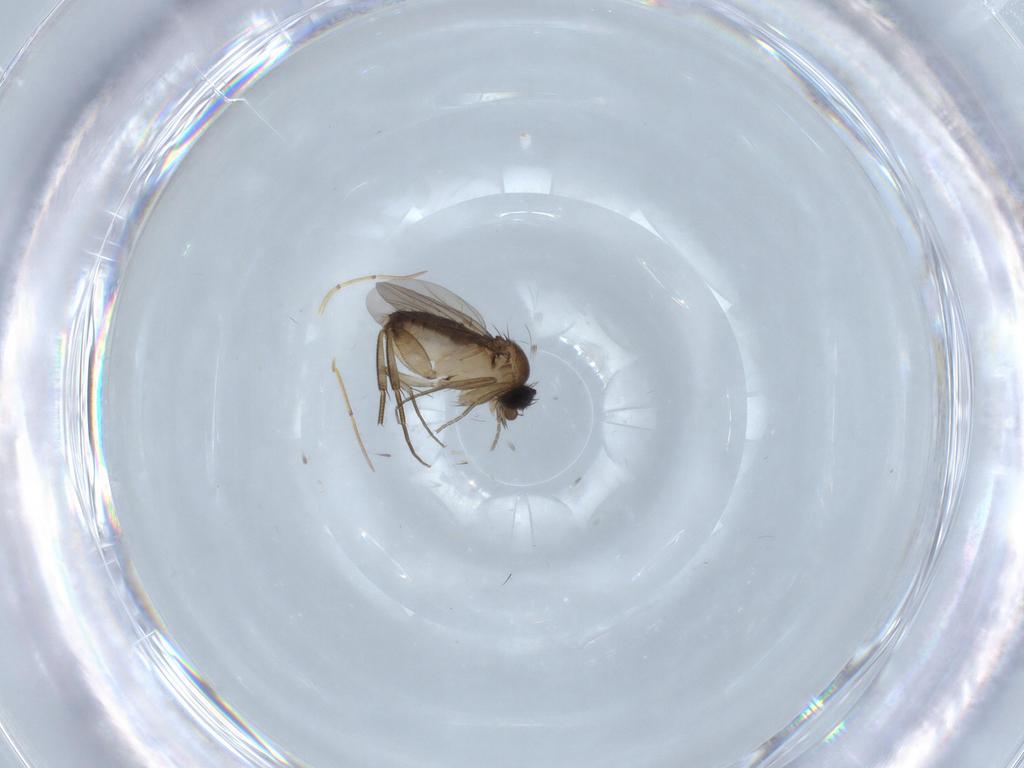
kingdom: Animalia
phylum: Arthropoda
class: Insecta
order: Diptera
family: Phoridae
